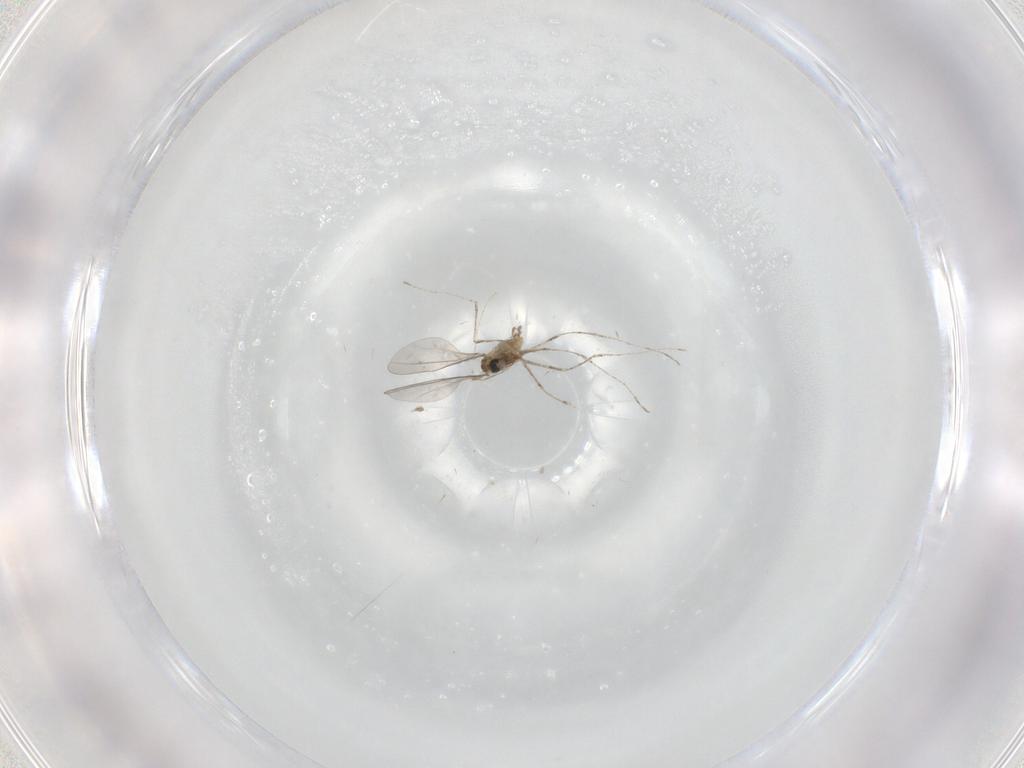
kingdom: Animalia
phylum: Arthropoda
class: Insecta
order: Diptera
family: Cecidomyiidae
